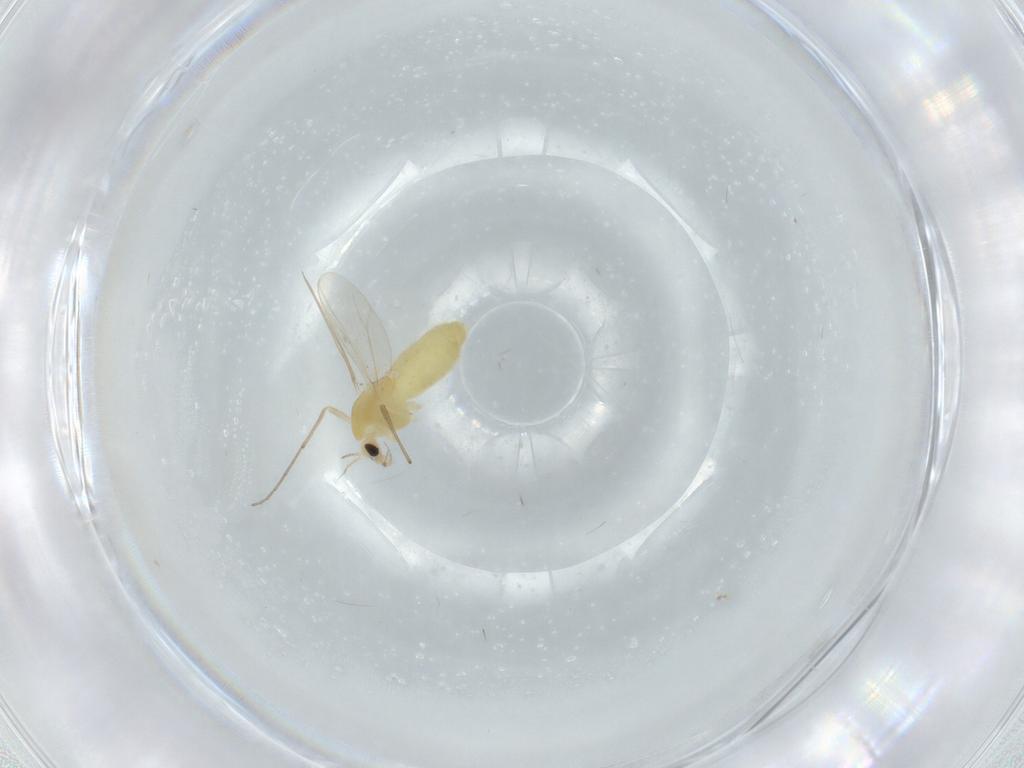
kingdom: Animalia
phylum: Arthropoda
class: Insecta
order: Diptera
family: Chironomidae
